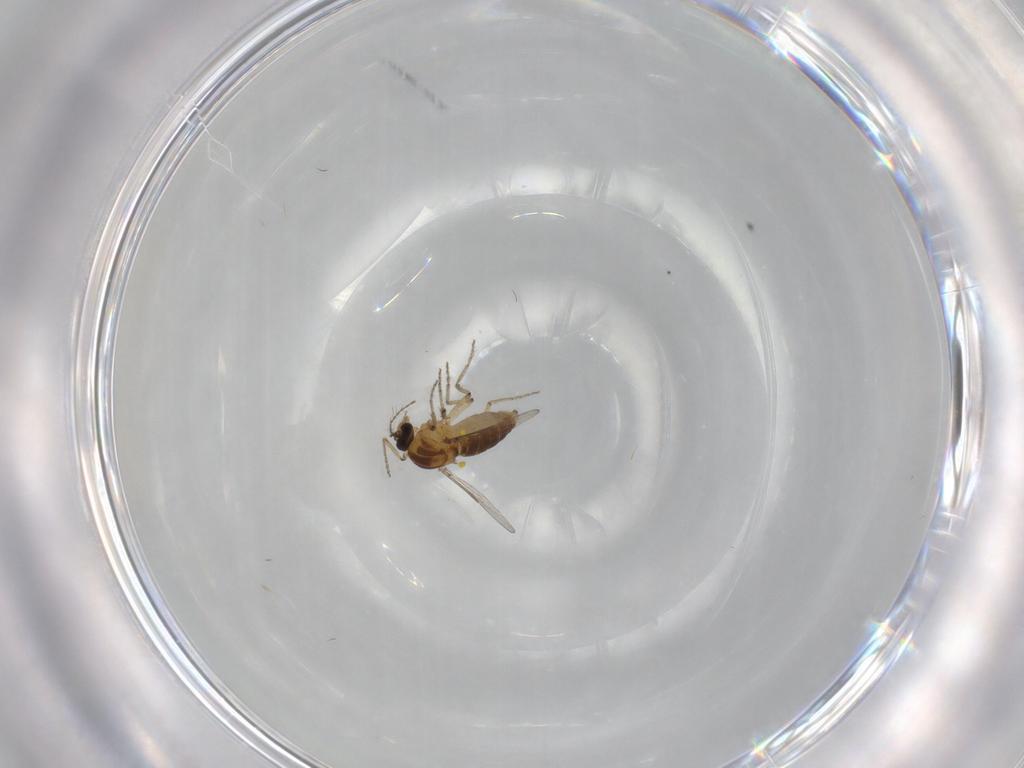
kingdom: Animalia
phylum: Arthropoda
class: Insecta
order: Diptera
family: Ceratopogonidae
